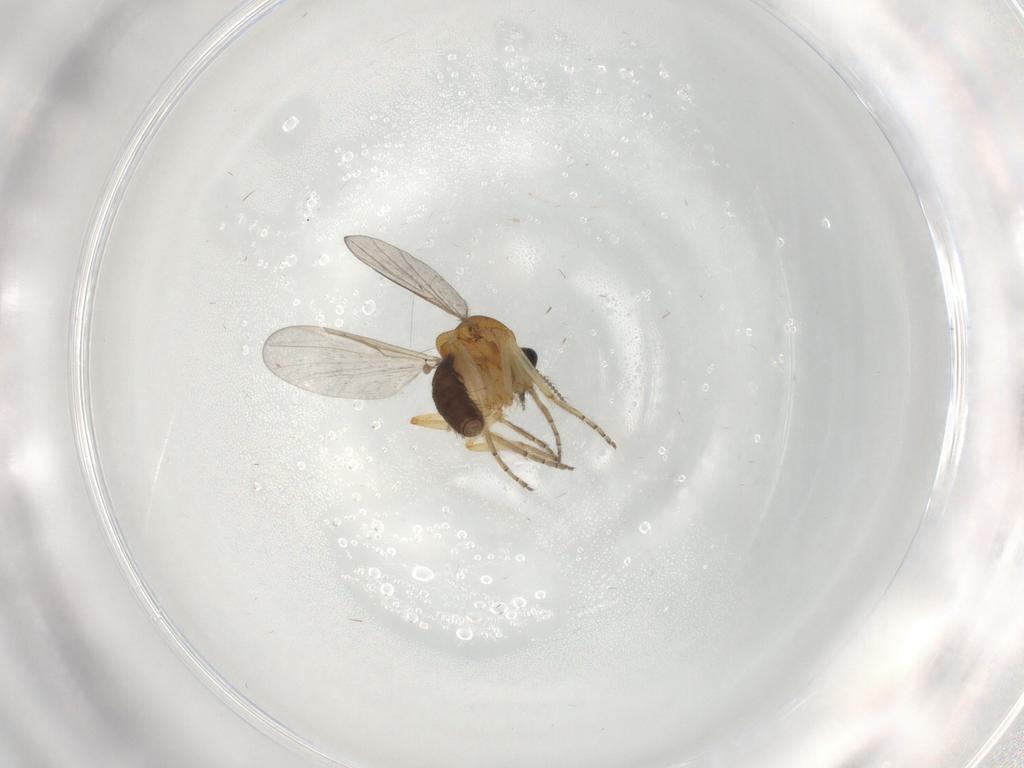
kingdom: Animalia
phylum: Arthropoda
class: Insecta
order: Diptera
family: Ceratopogonidae
